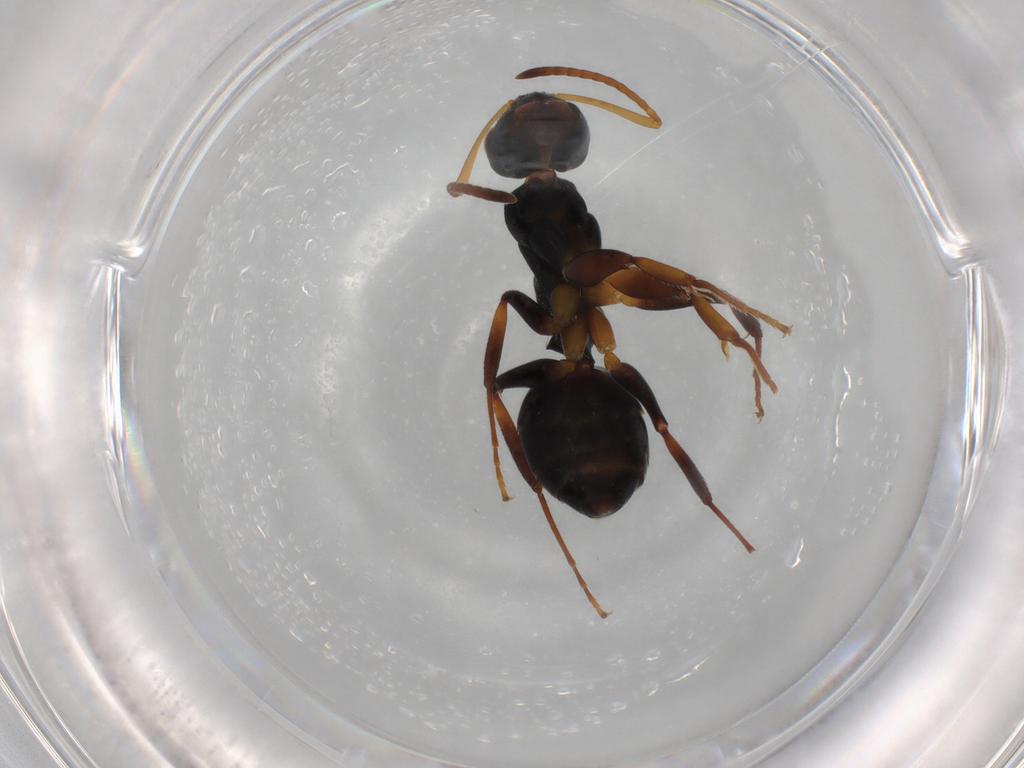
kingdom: Animalia
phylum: Arthropoda
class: Insecta
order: Hymenoptera
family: Formicidae
